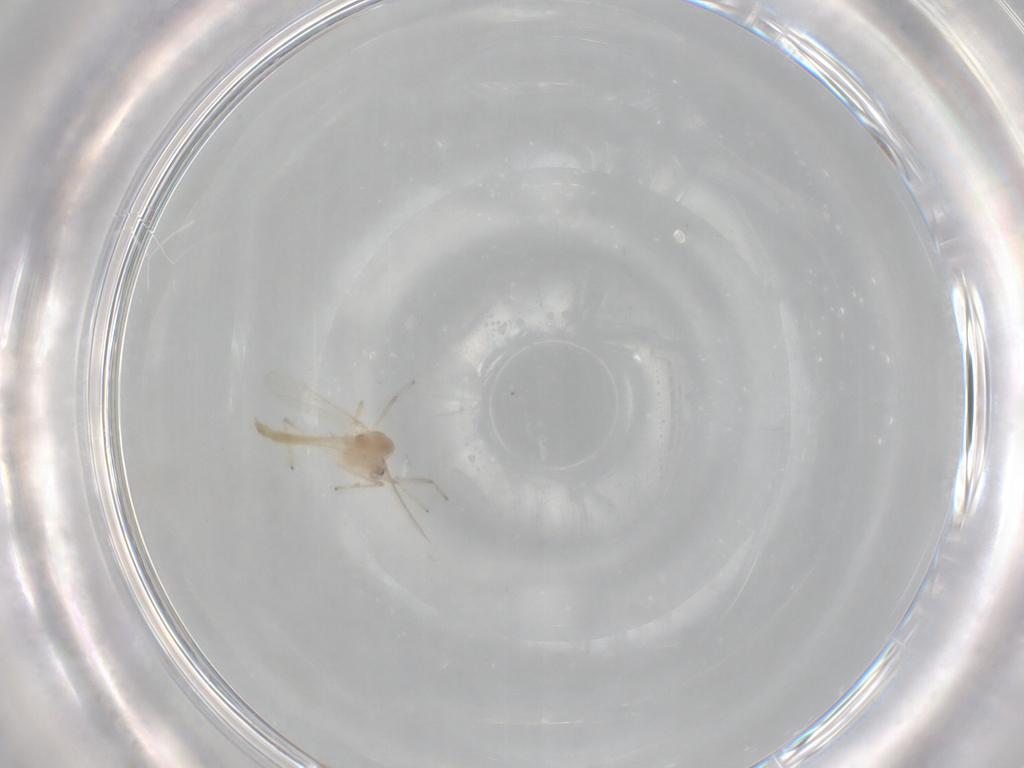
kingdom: Animalia
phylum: Arthropoda
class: Insecta
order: Diptera
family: Chironomidae
